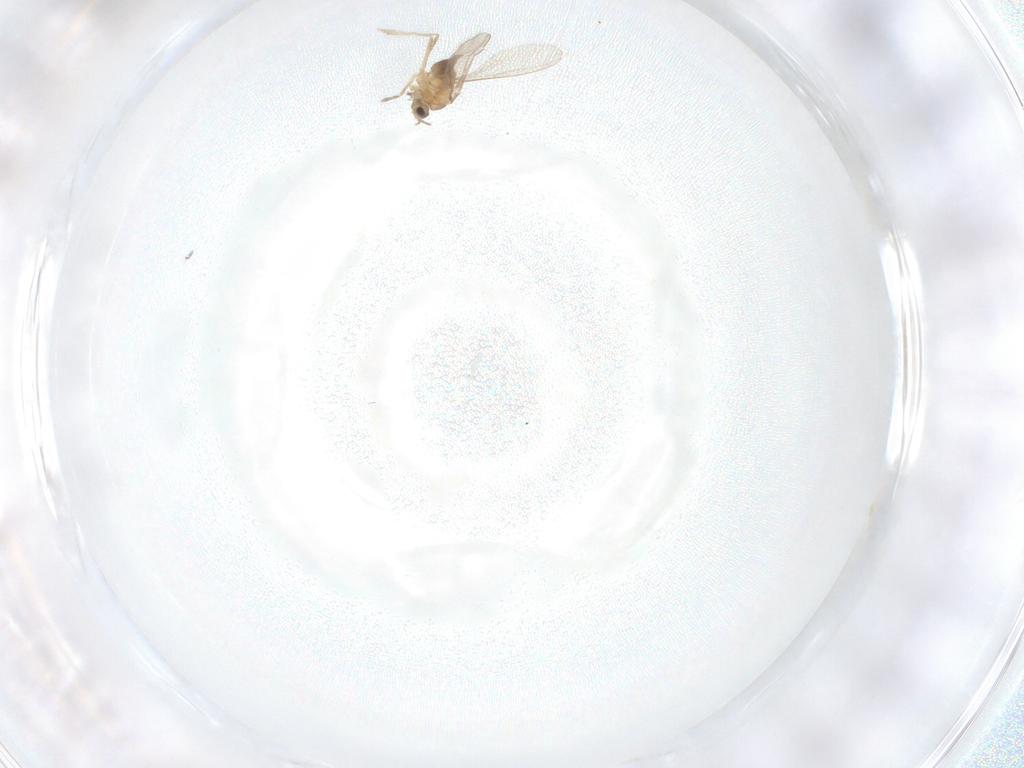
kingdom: Animalia
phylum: Arthropoda
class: Insecta
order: Diptera
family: Cecidomyiidae
